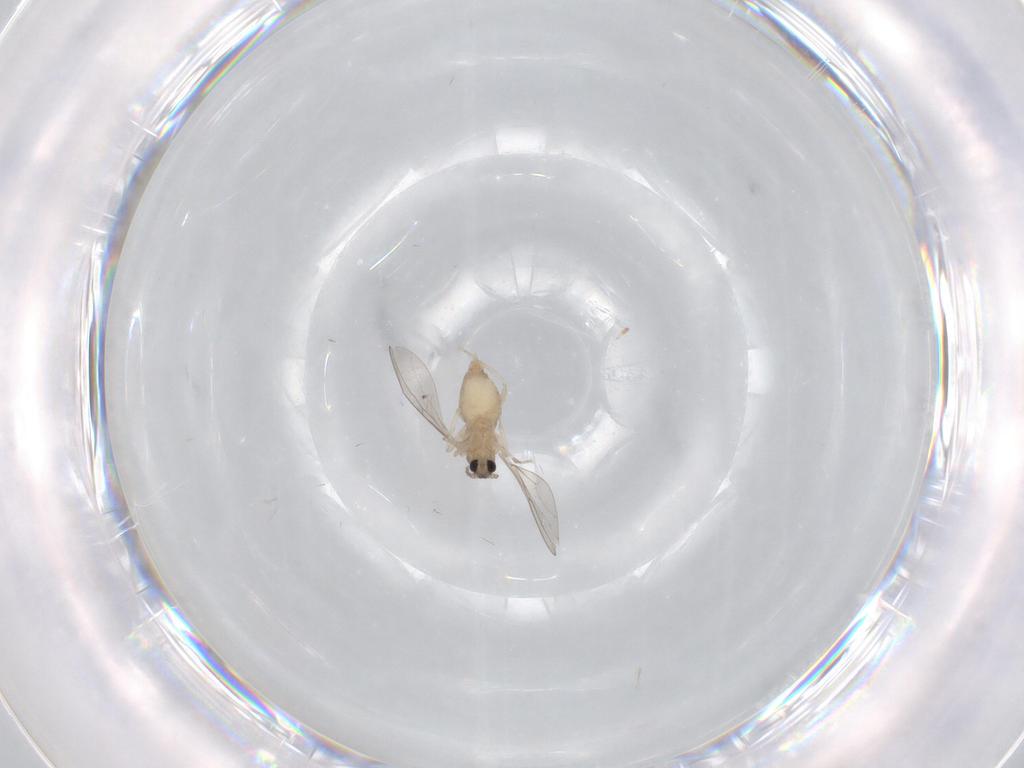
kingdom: Animalia
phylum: Arthropoda
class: Insecta
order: Diptera
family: Cecidomyiidae
